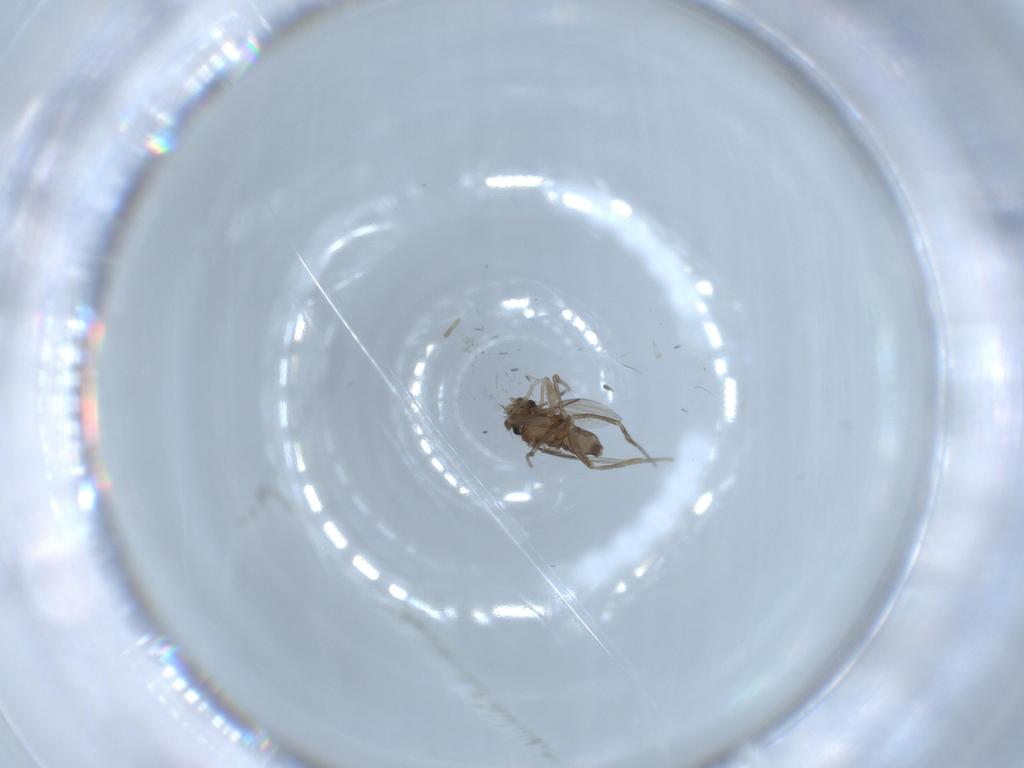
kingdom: Animalia
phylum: Arthropoda
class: Insecta
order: Diptera
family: Phoridae
